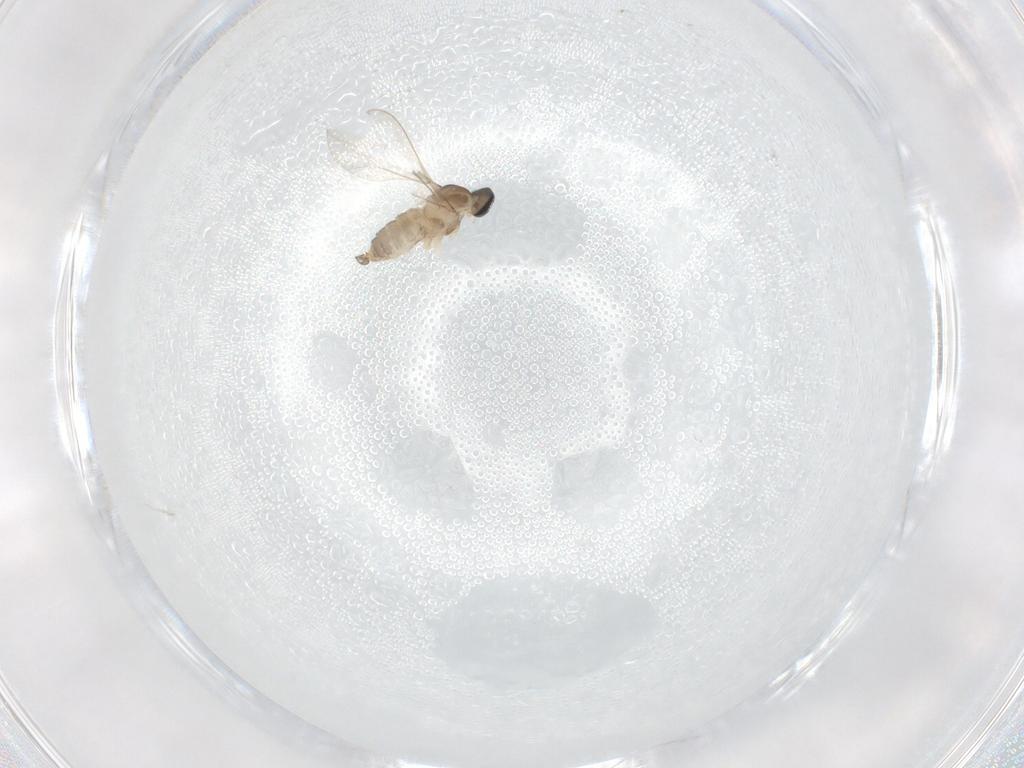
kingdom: Animalia
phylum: Arthropoda
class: Insecta
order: Diptera
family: Cecidomyiidae
